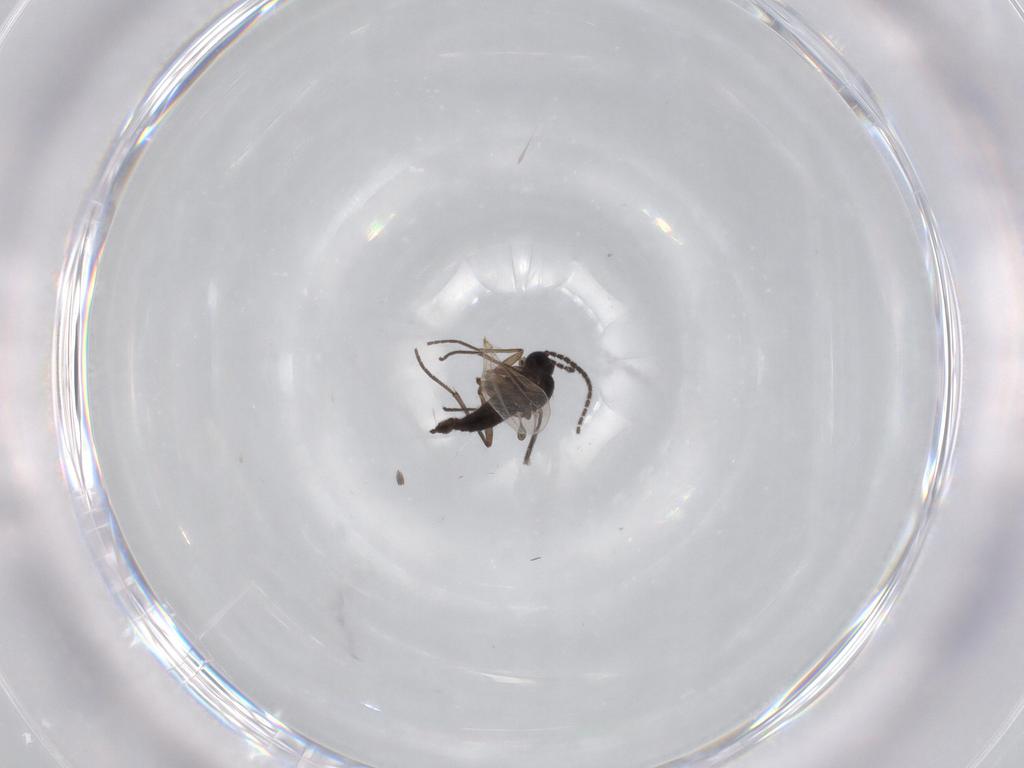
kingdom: Animalia
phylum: Arthropoda
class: Insecta
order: Diptera
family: Sciaridae
